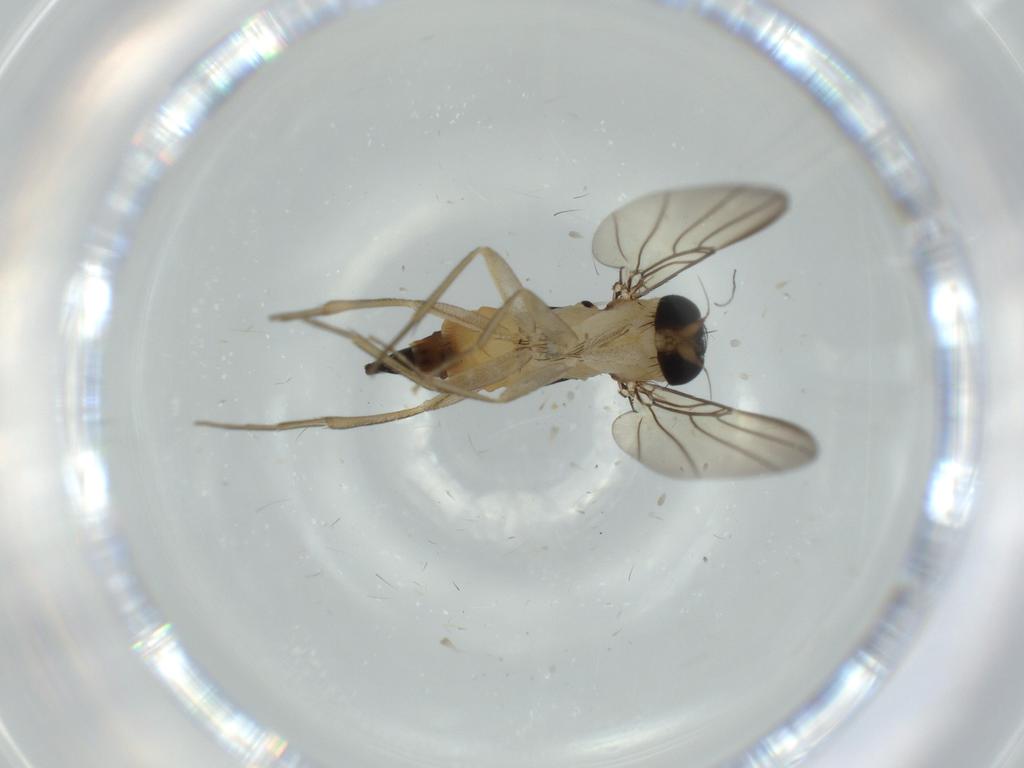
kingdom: Animalia
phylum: Arthropoda
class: Insecta
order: Diptera
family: Phoridae
